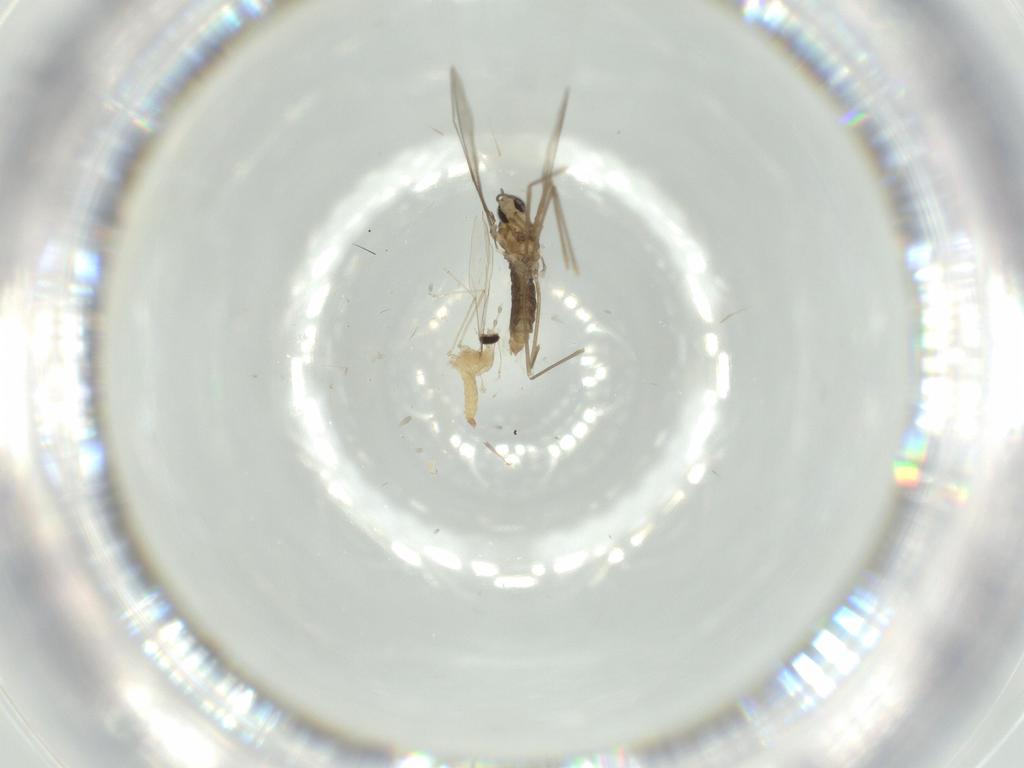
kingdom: Animalia
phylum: Arthropoda
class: Insecta
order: Diptera
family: Cecidomyiidae
